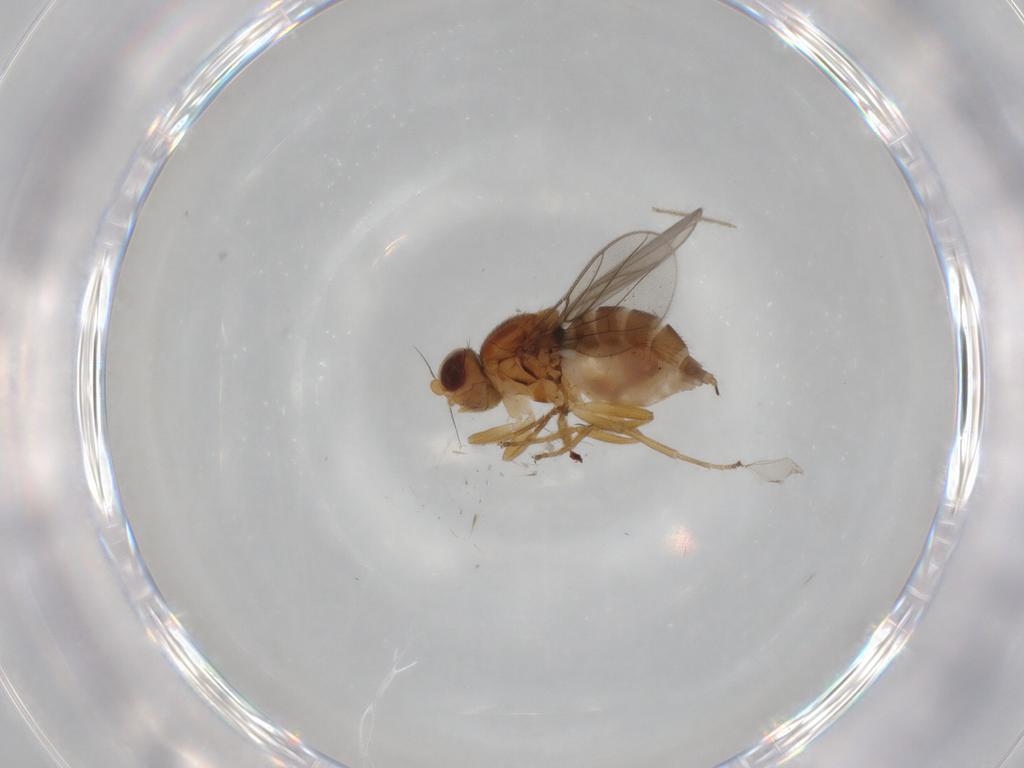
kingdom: Animalia
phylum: Arthropoda
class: Insecta
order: Diptera
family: Chloropidae
